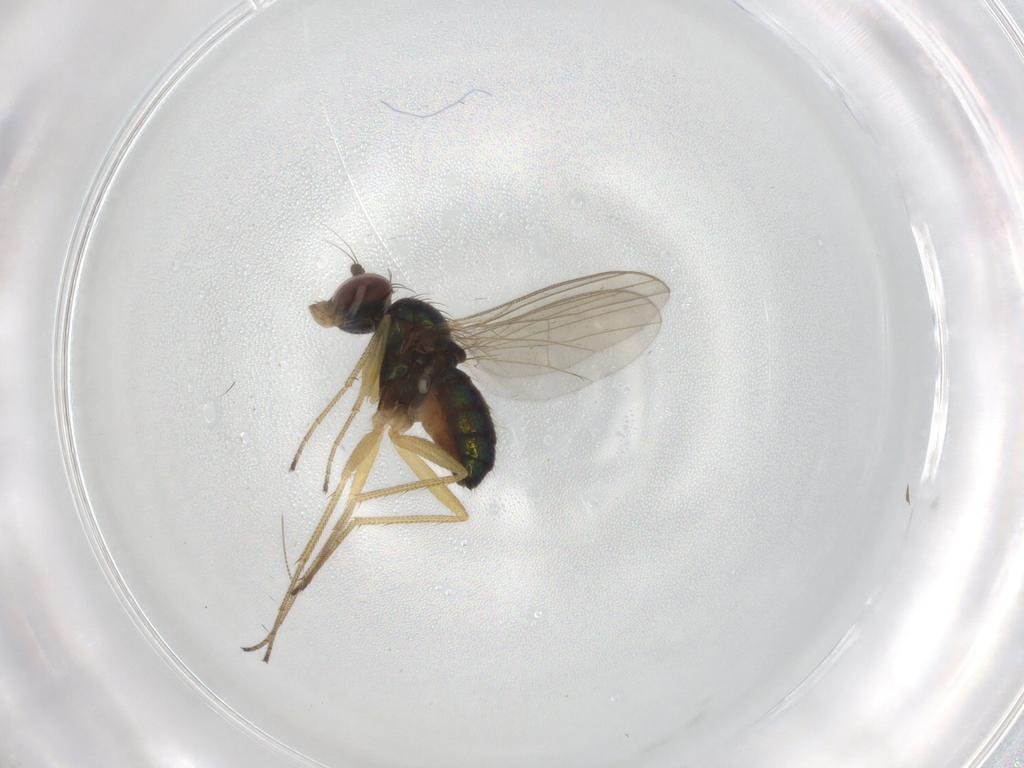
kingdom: Animalia
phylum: Arthropoda
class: Insecta
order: Diptera
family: Dolichopodidae
